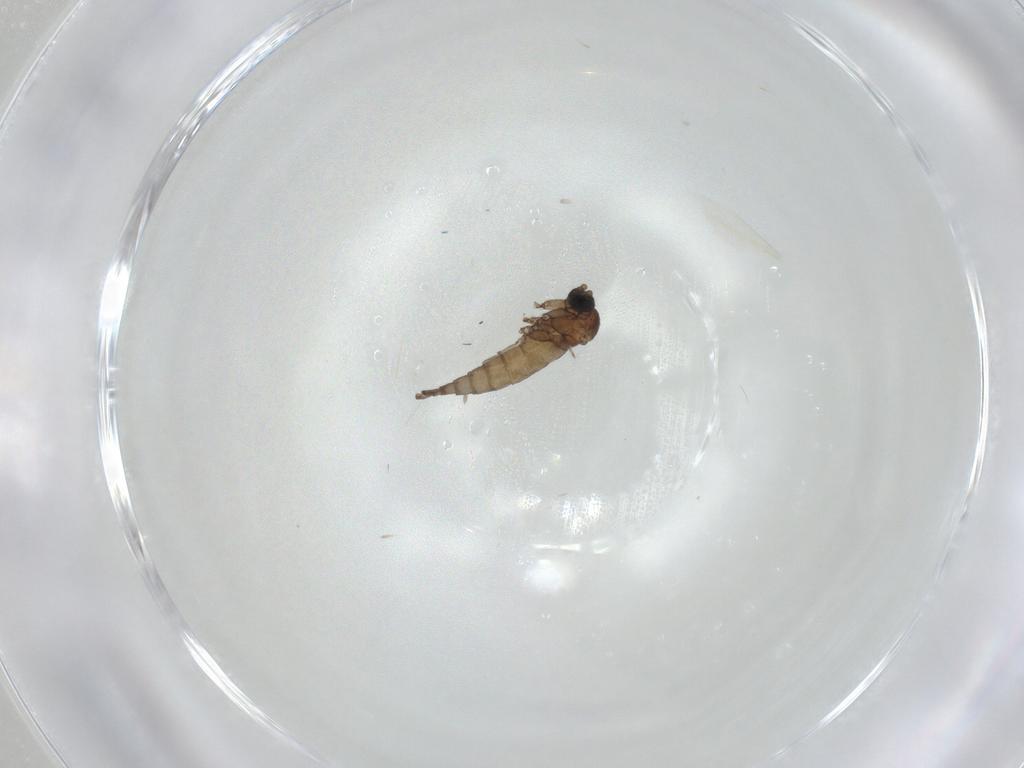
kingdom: Animalia
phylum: Arthropoda
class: Insecta
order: Diptera
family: Sciaridae
